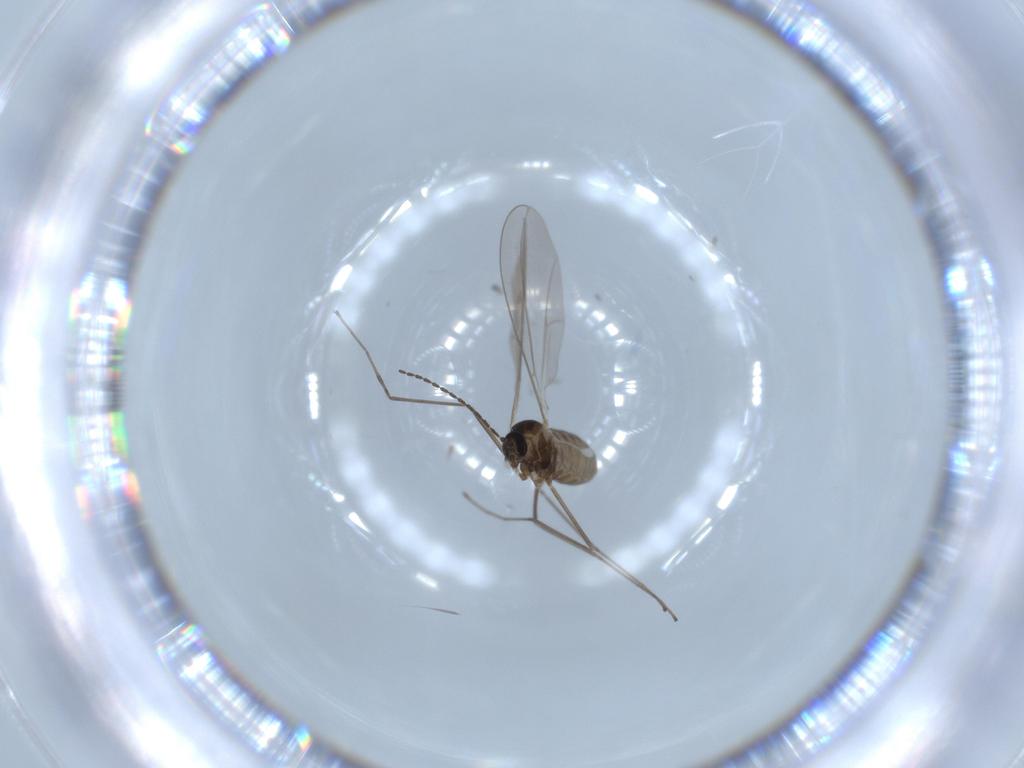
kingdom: Animalia
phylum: Arthropoda
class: Insecta
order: Diptera
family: Cecidomyiidae
